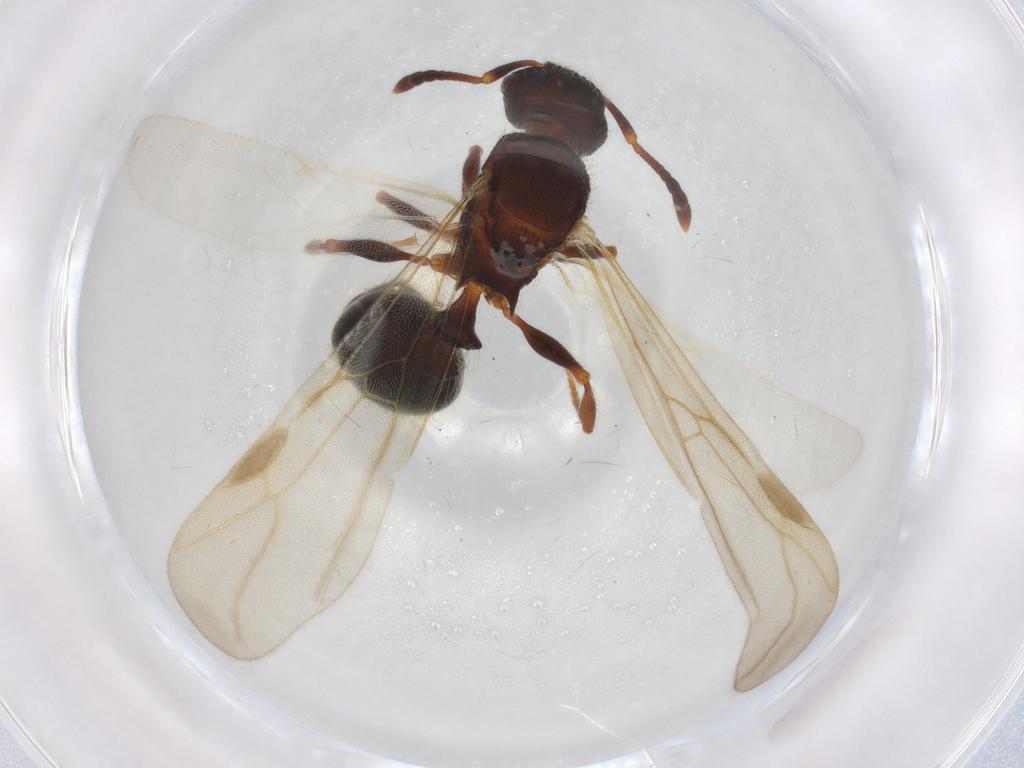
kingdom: Animalia
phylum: Arthropoda
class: Insecta
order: Hymenoptera
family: Formicidae
